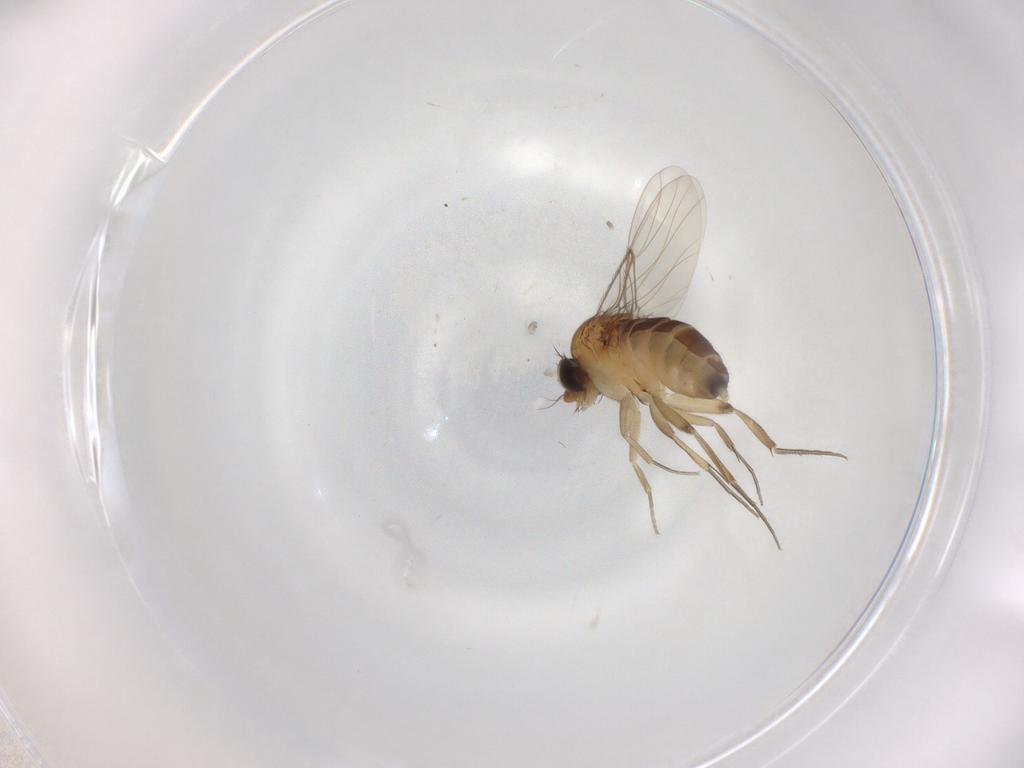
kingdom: Animalia
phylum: Arthropoda
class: Insecta
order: Diptera
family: Phoridae
